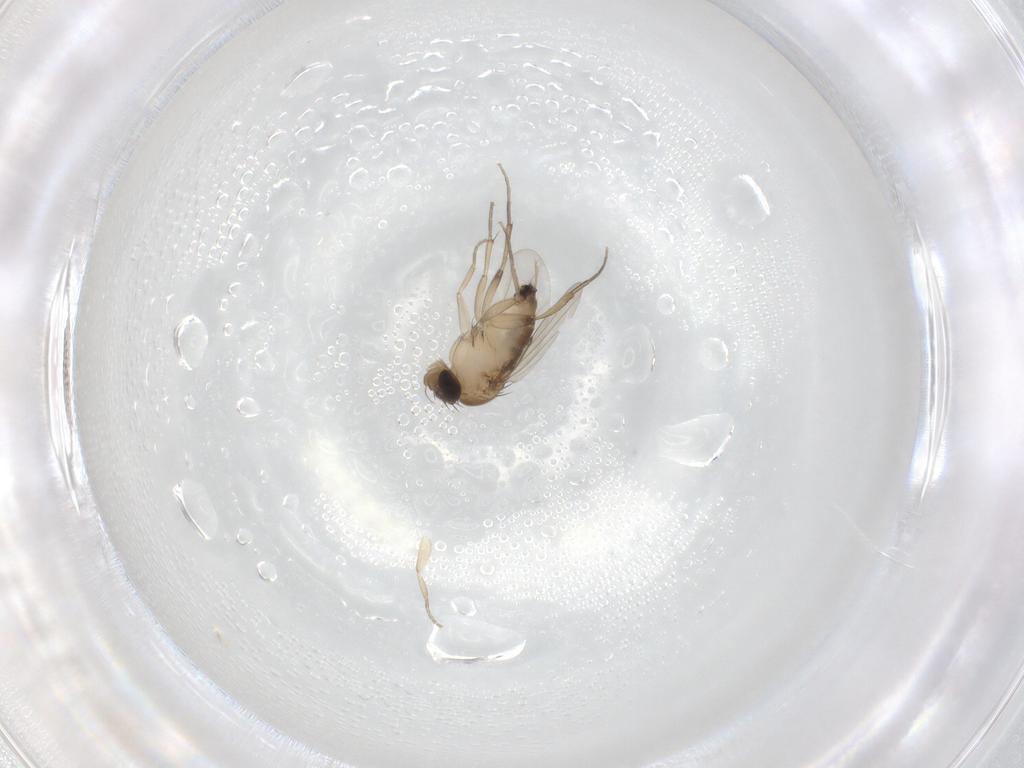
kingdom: Animalia
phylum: Arthropoda
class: Insecta
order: Diptera
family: Phoridae
